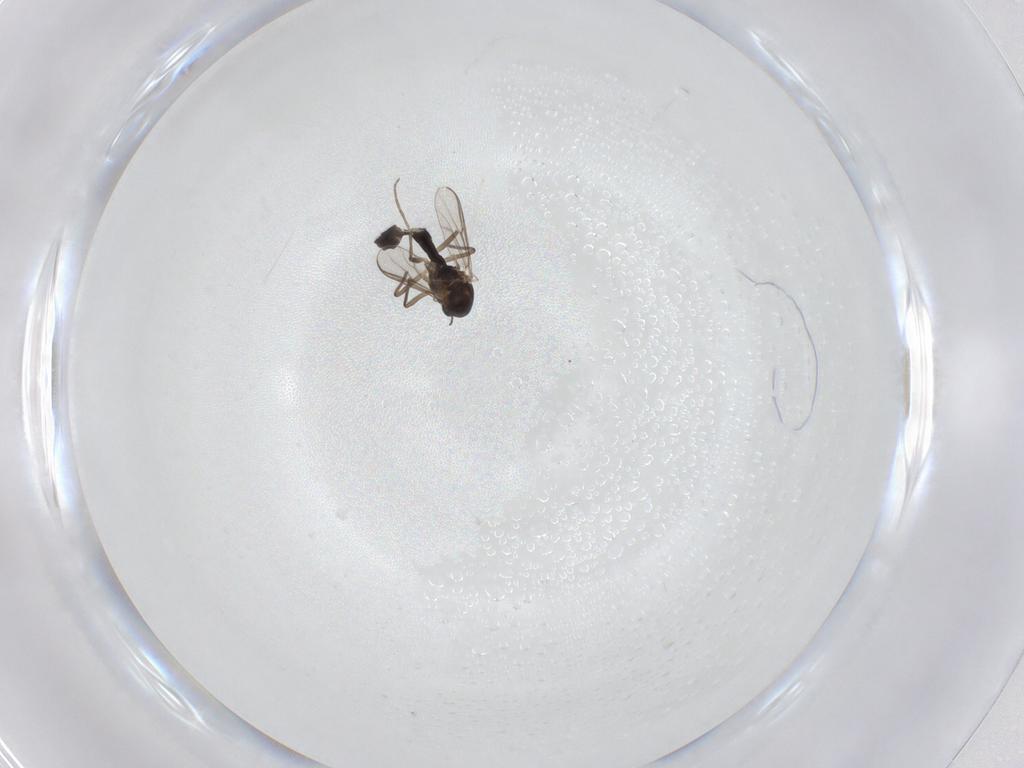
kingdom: Animalia
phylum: Arthropoda
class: Insecta
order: Diptera
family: Chironomidae
